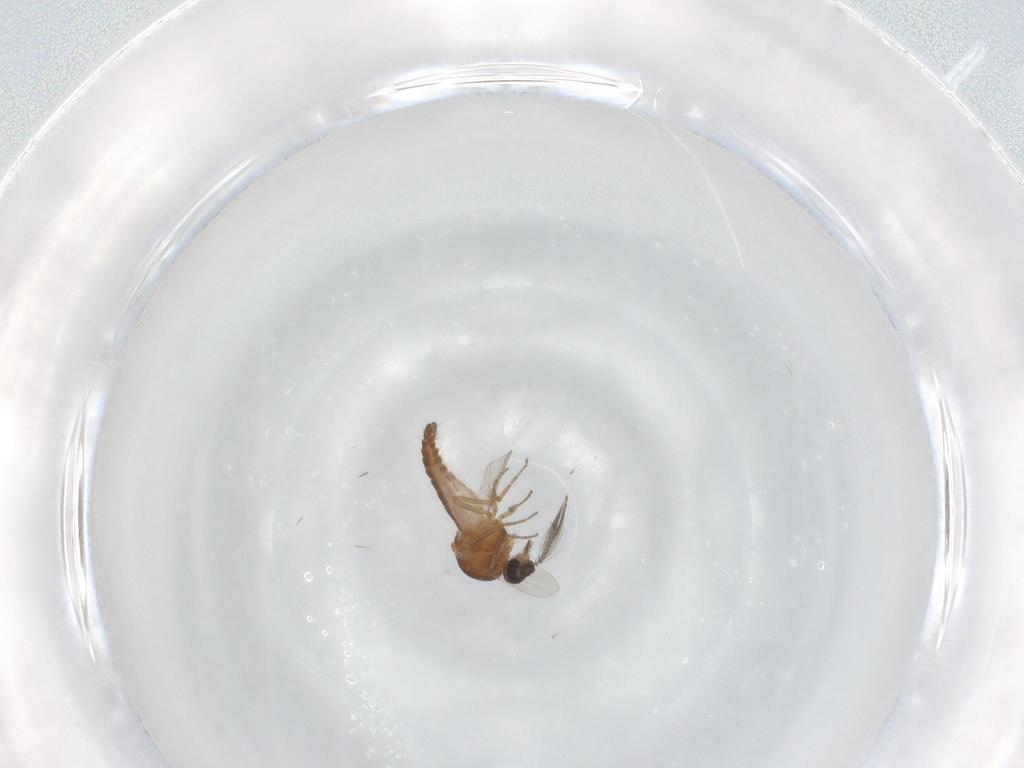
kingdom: Animalia
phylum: Arthropoda
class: Insecta
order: Diptera
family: Ceratopogonidae
